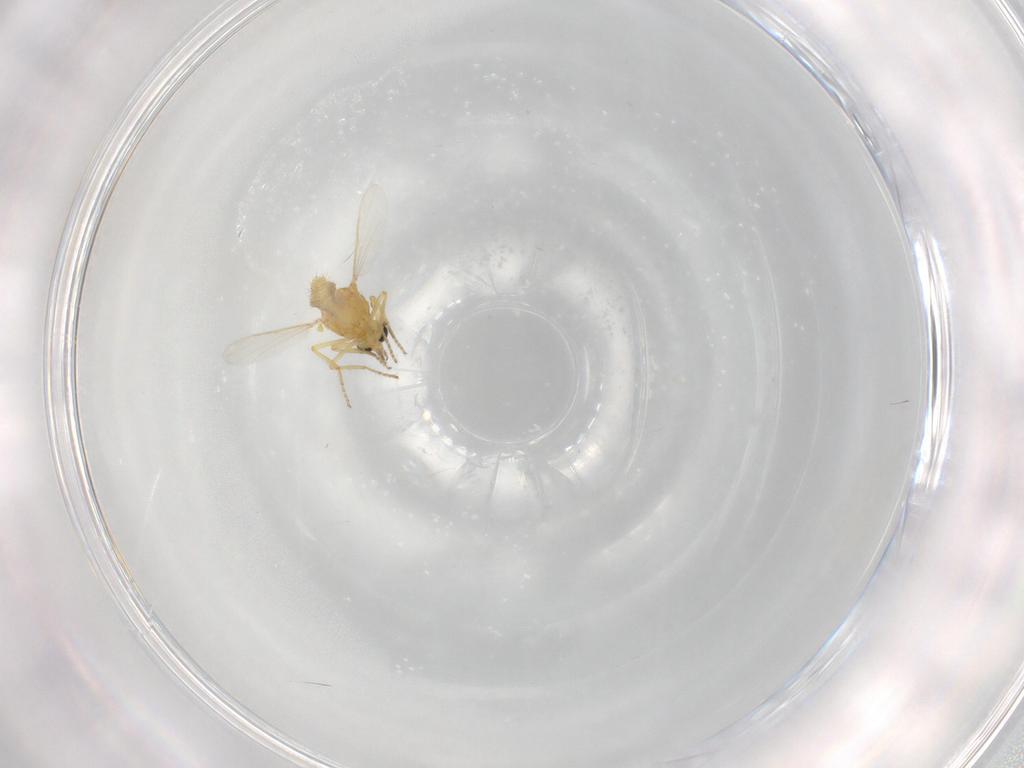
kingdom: Animalia
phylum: Arthropoda
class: Insecta
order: Diptera
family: Ceratopogonidae
